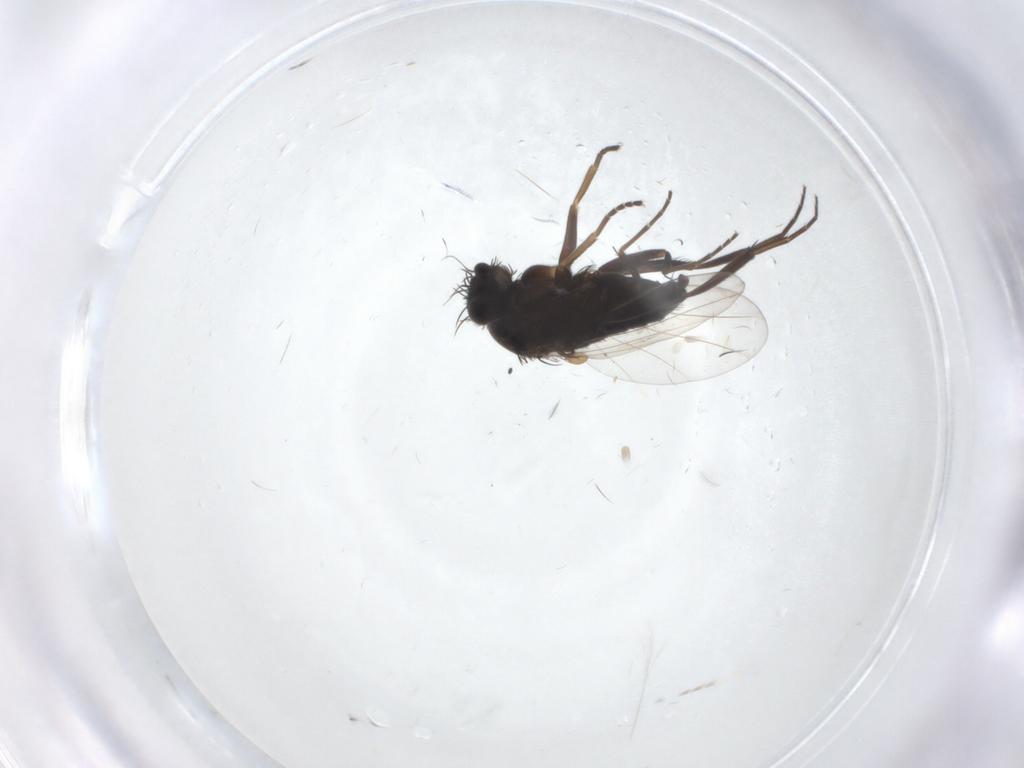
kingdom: Animalia
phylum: Arthropoda
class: Insecta
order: Diptera
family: Phoridae
